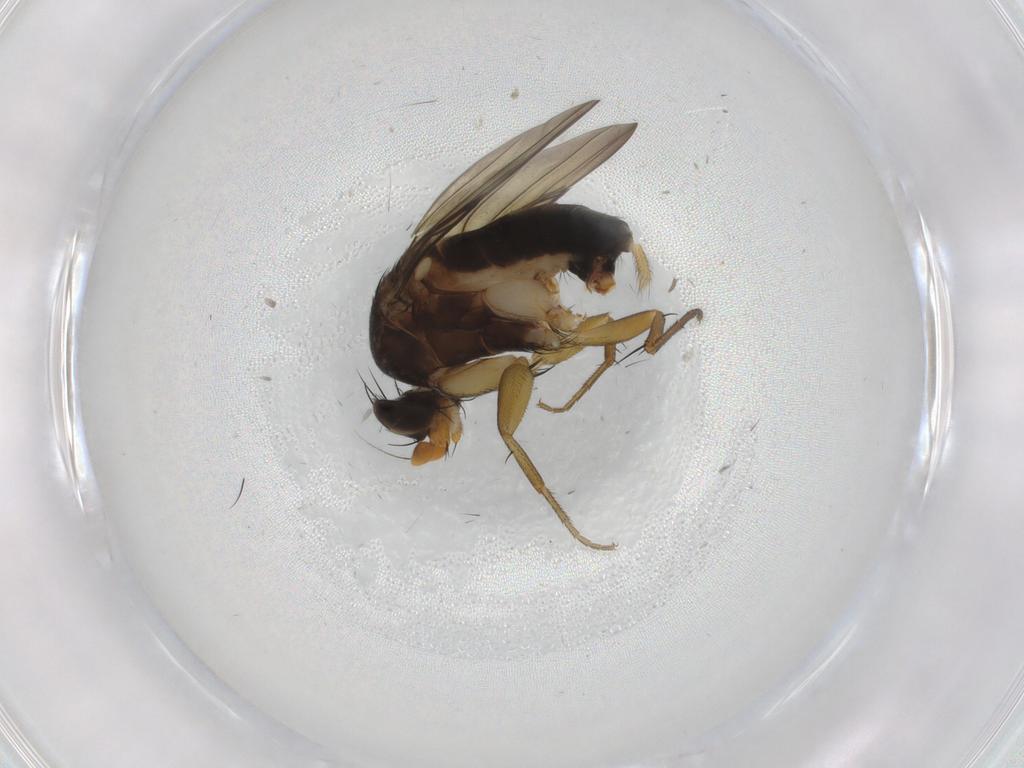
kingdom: Animalia
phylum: Arthropoda
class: Insecta
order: Diptera
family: Phoridae
